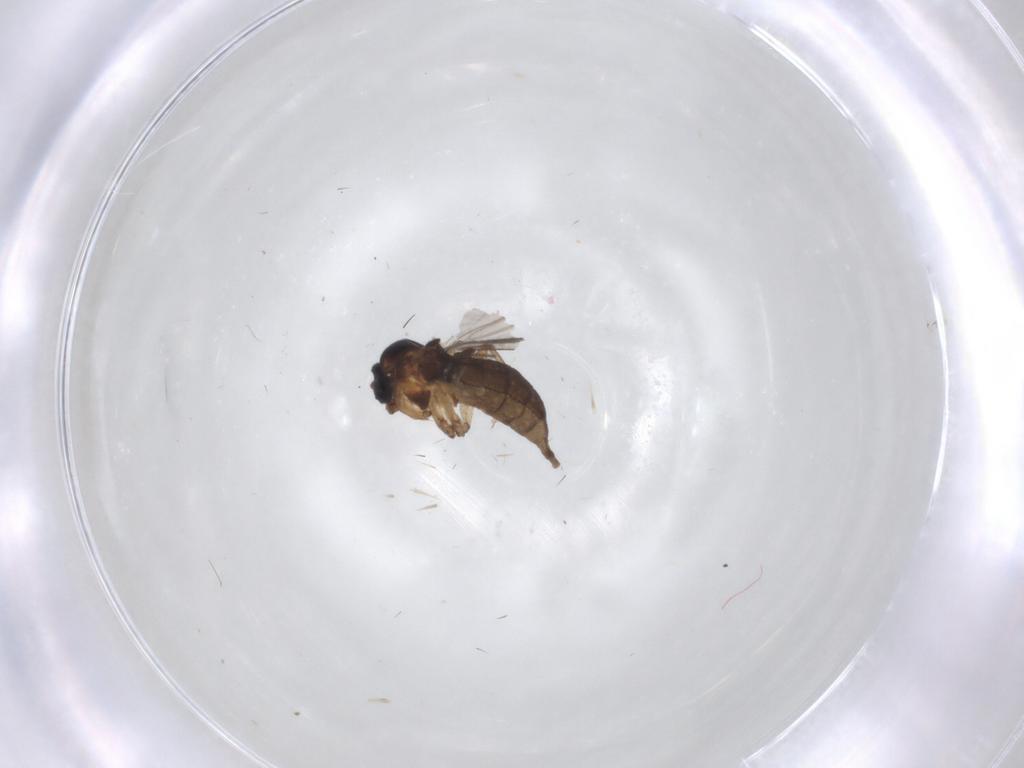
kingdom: Animalia
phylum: Arthropoda
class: Insecta
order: Diptera
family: Sciaridae
